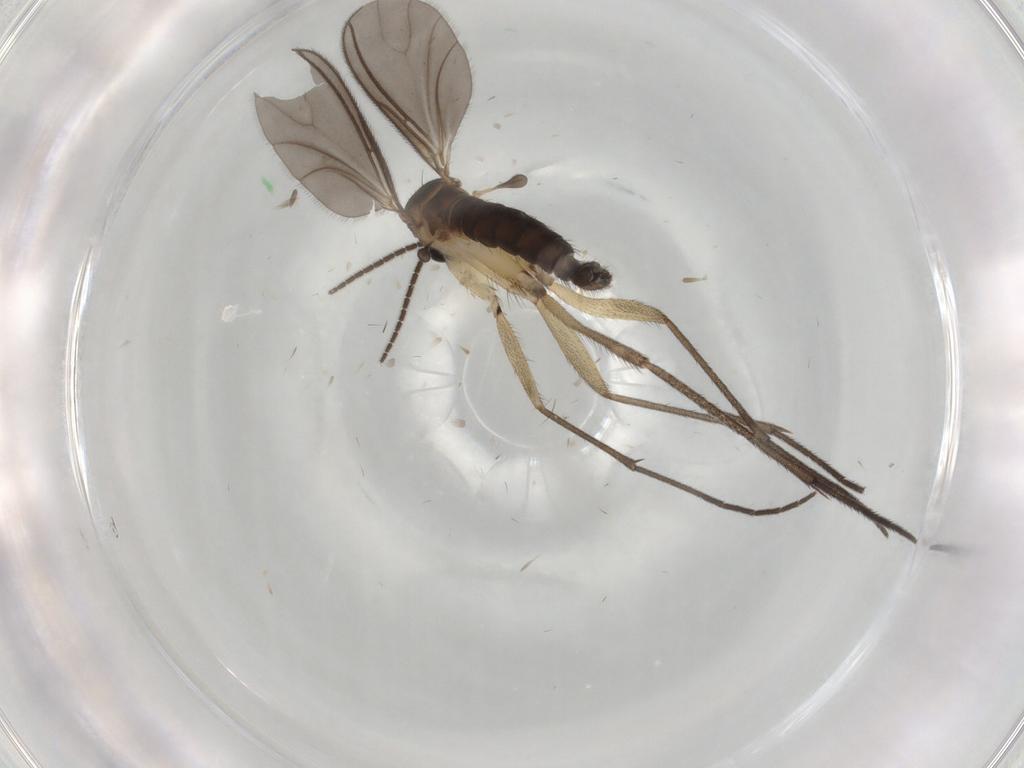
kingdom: Animalia
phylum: Arthropoda
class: Insecta
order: Diptera
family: Sciaridae
